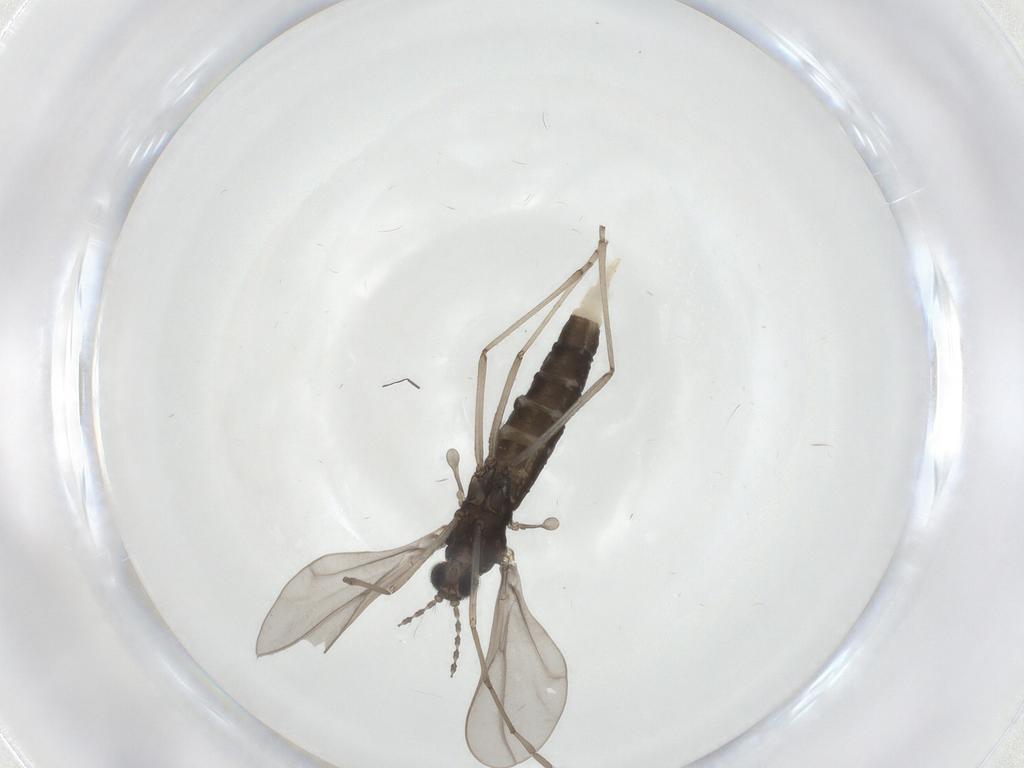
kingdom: Animalia
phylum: Arthropoda
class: Insecta
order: Diptera
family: Cecidomyiidae
